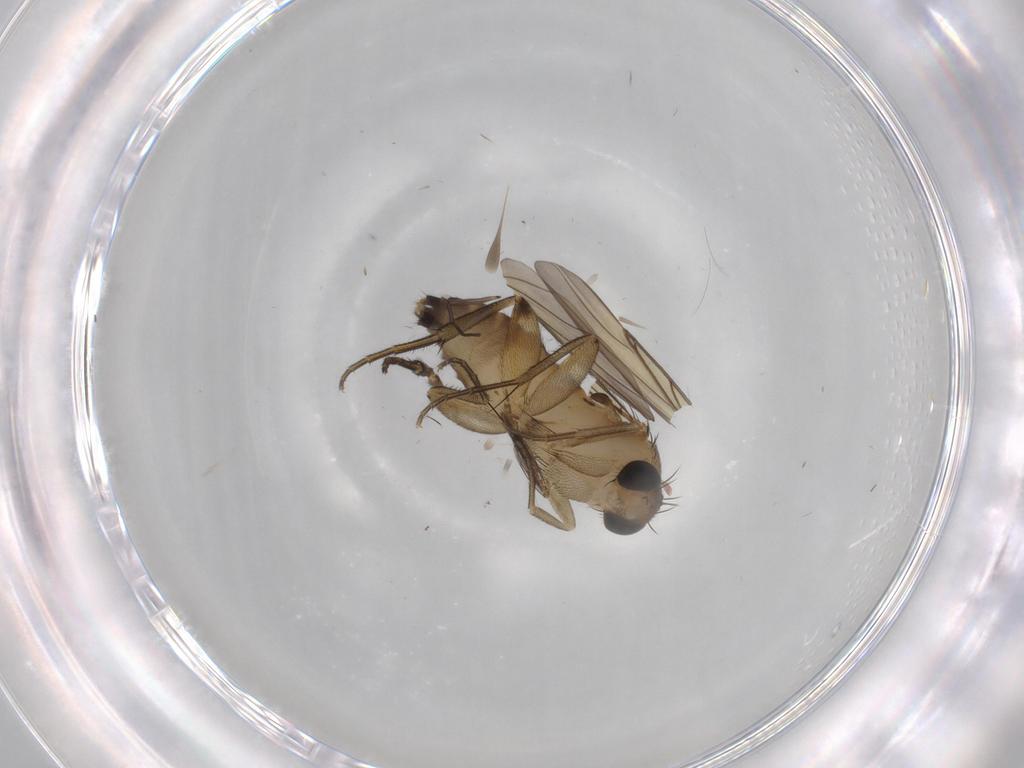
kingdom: Animalia
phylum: Arthropoda
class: Insecta
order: Diptera
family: Phoridae
